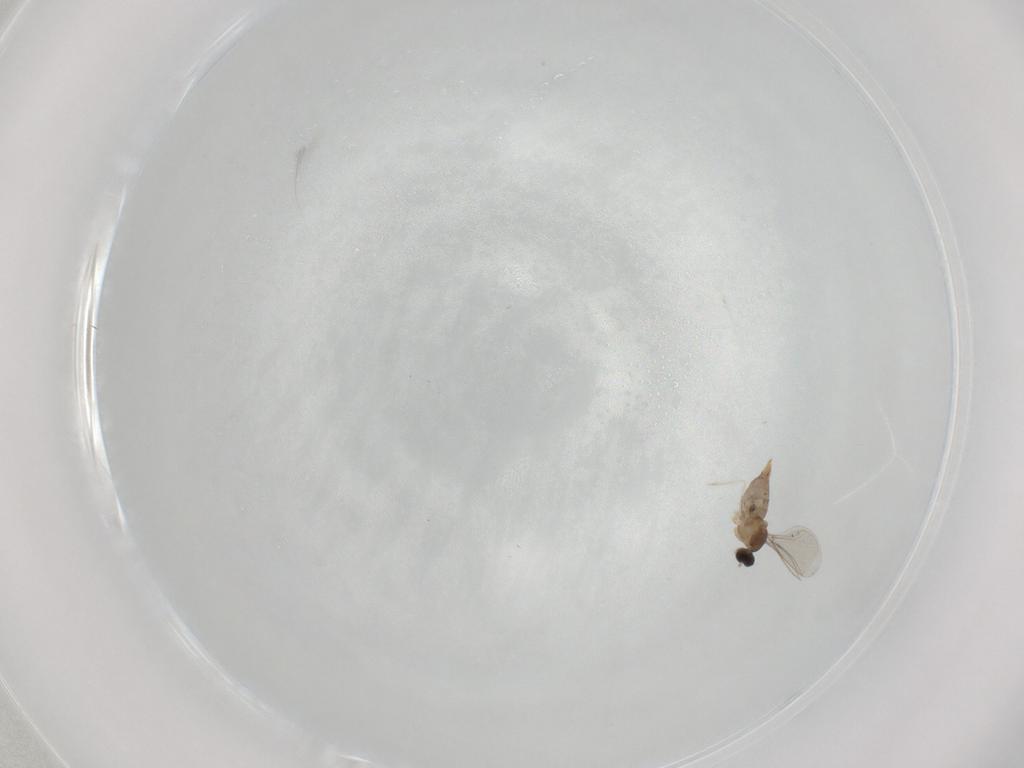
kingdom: Animalia
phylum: Arthropoda
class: Insecta
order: Diptera
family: Cecidomyiidae
